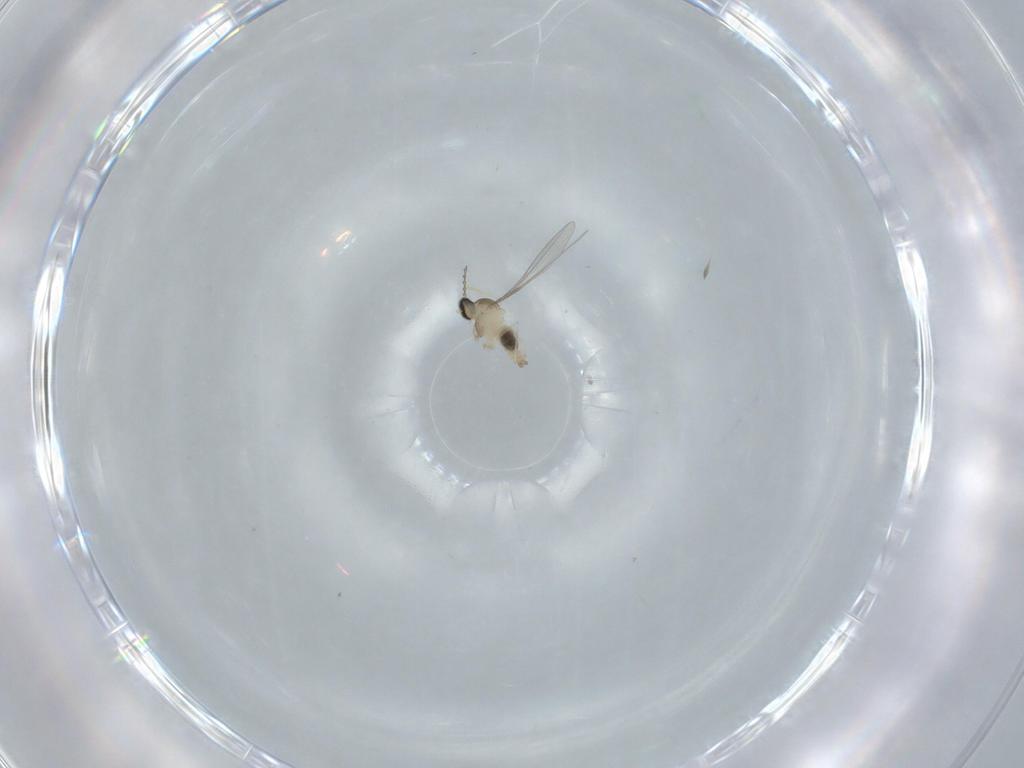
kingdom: Animalia
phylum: Arthropoda
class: Insecta
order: Diptera
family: Cecidomyiidae
